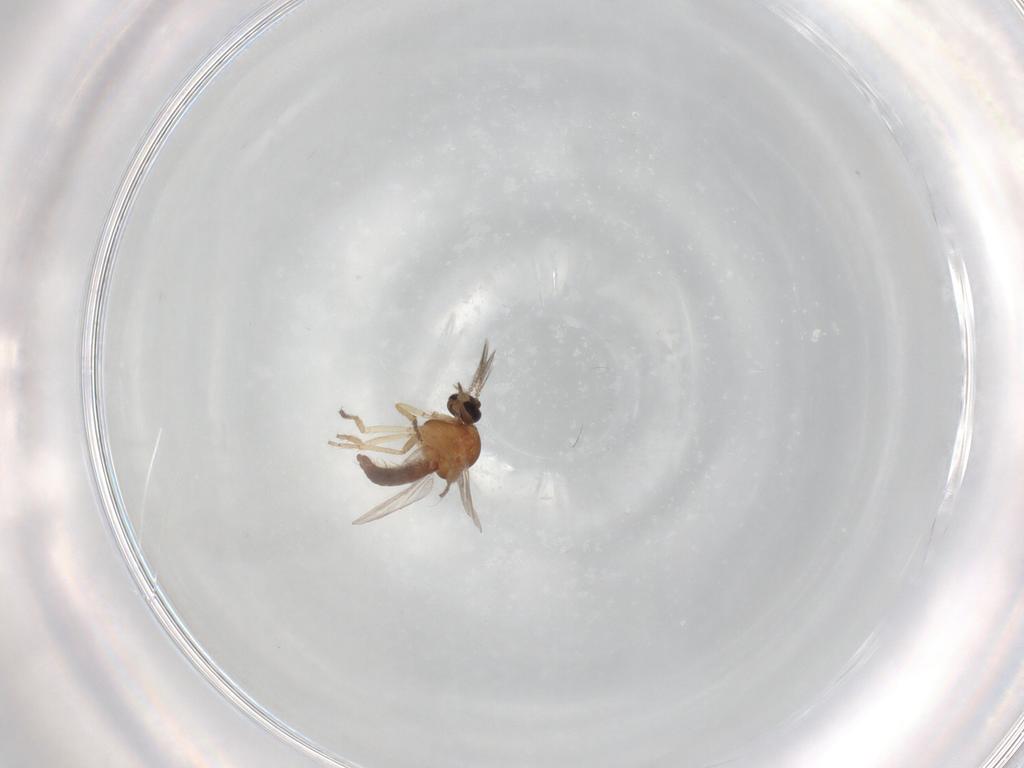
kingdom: Animalia
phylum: Arthropoda
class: Insecta
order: Diptera
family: Ceratopogonidae
